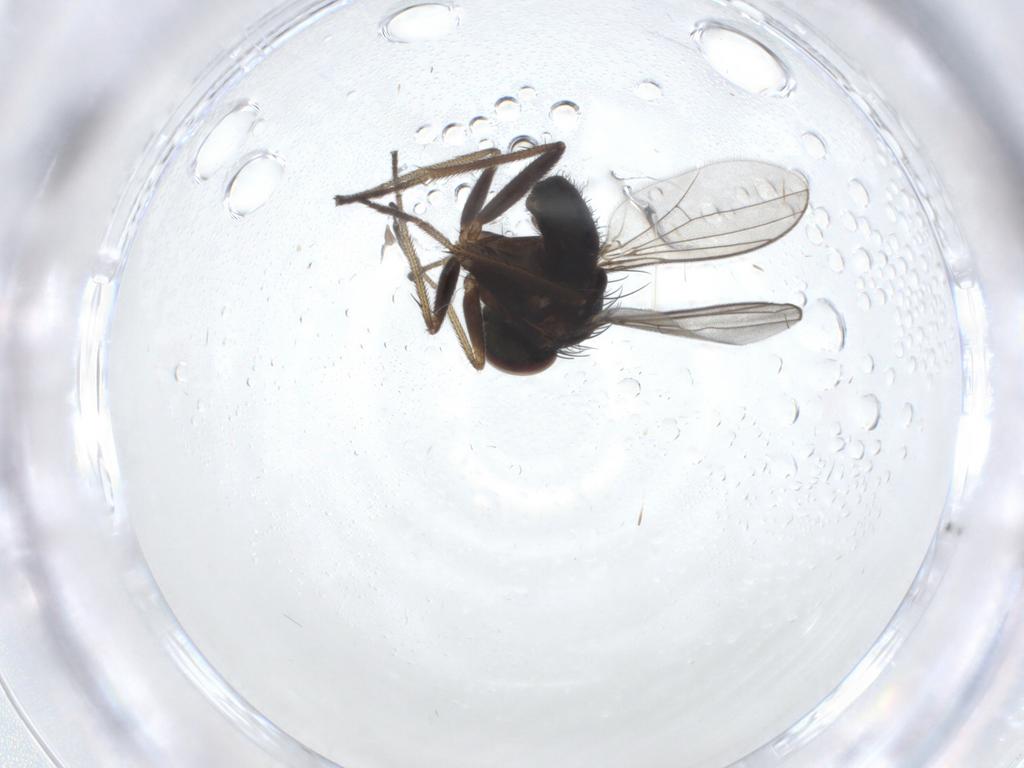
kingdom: Animalia
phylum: Arthropoda
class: Insecta
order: Diptera
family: Dolichopodidae
